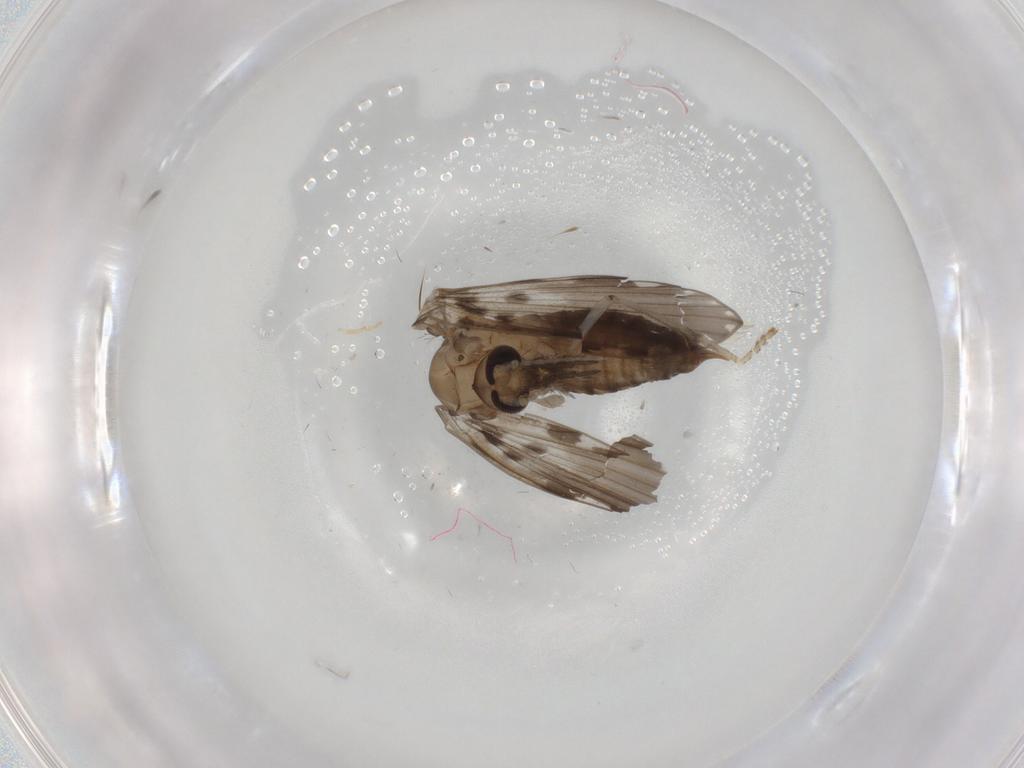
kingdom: Animalia
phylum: Arthropoda
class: Insecta
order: Diptera
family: Psychodidae
